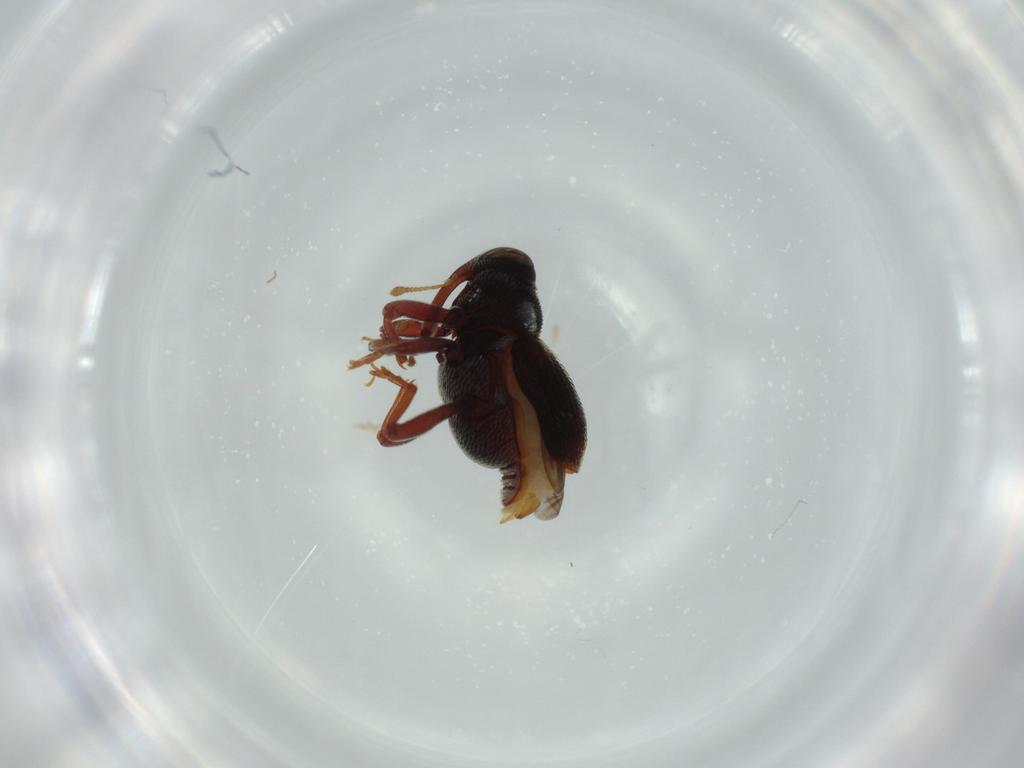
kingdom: Animalia
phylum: Arthropoda
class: Insecta
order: Coleoptera
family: Curculionidae
